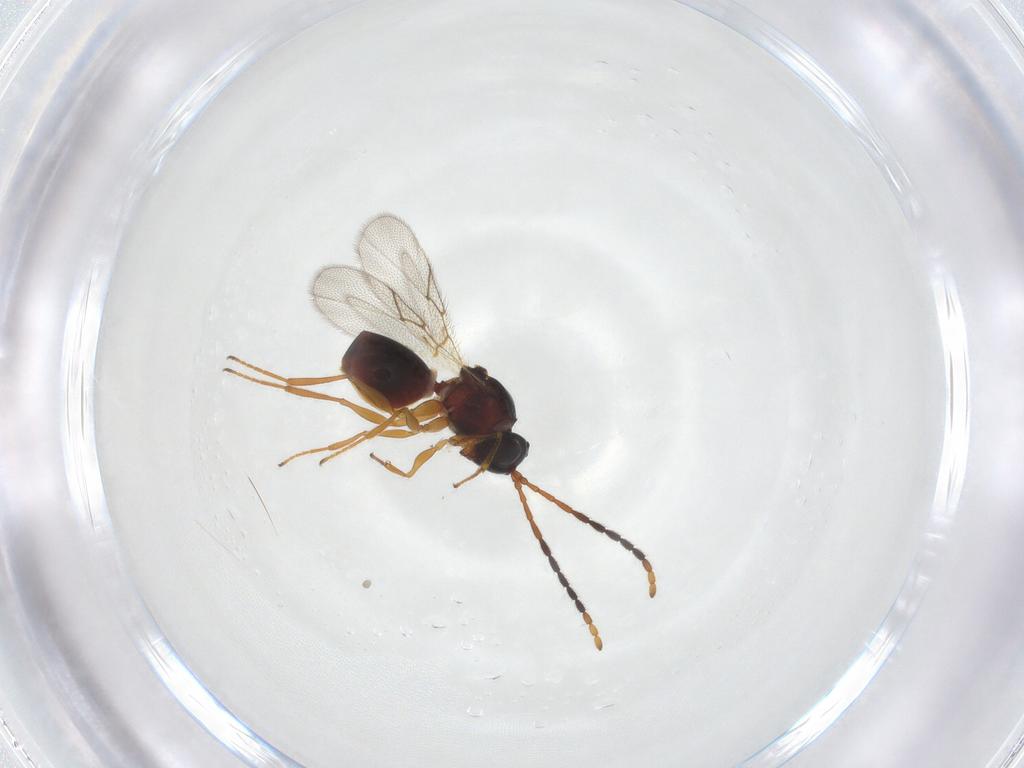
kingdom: Animalia
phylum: Arthropoda
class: Insecta
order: Hymenoptera
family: Figitidae
